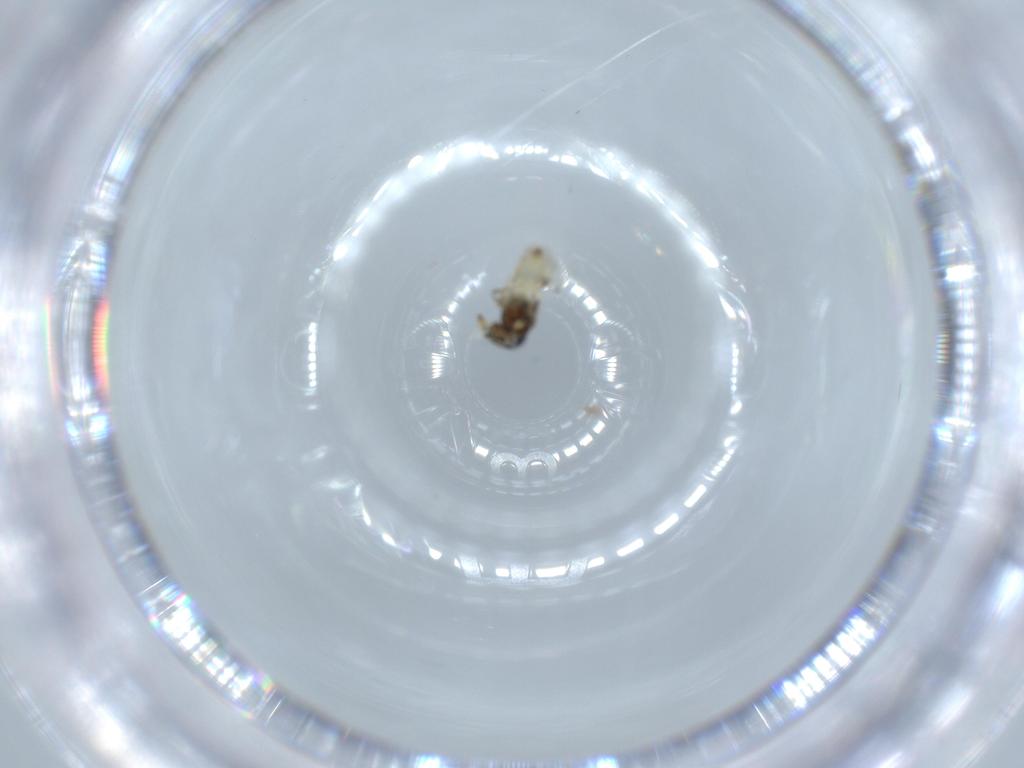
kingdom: Animalia
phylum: Arthropoda
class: Insecta
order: Hymenoptera
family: Scelionidae
